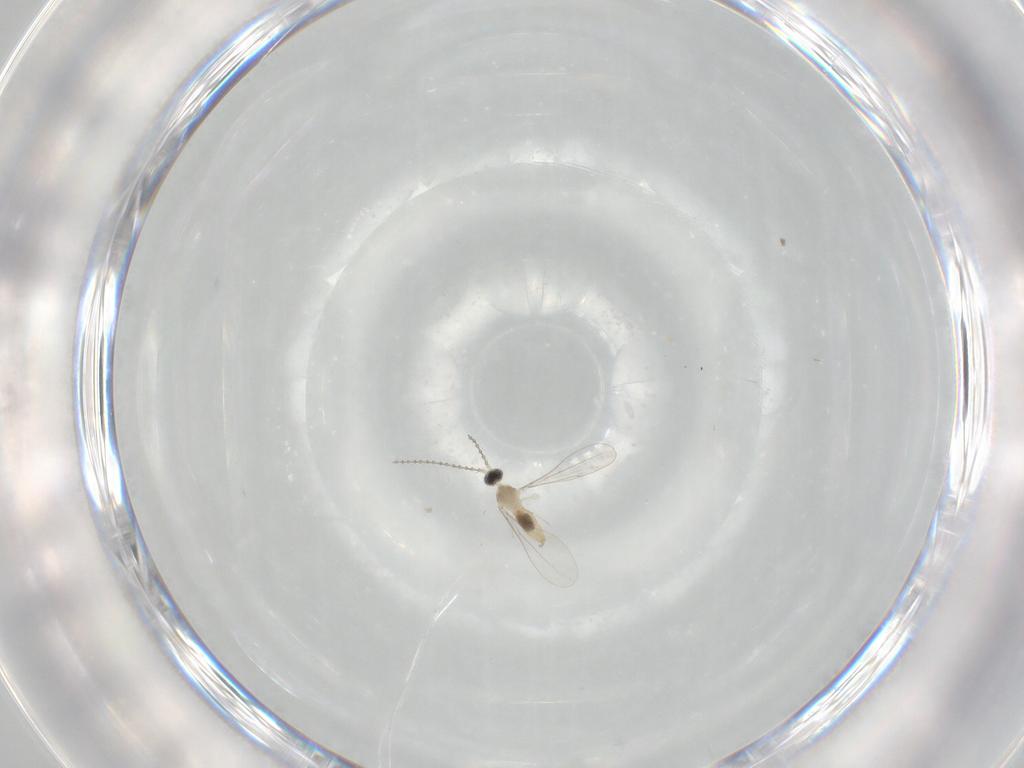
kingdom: Animalia
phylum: Arthropoda
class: Insecta
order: Diptera
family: Cecidomyiidae
